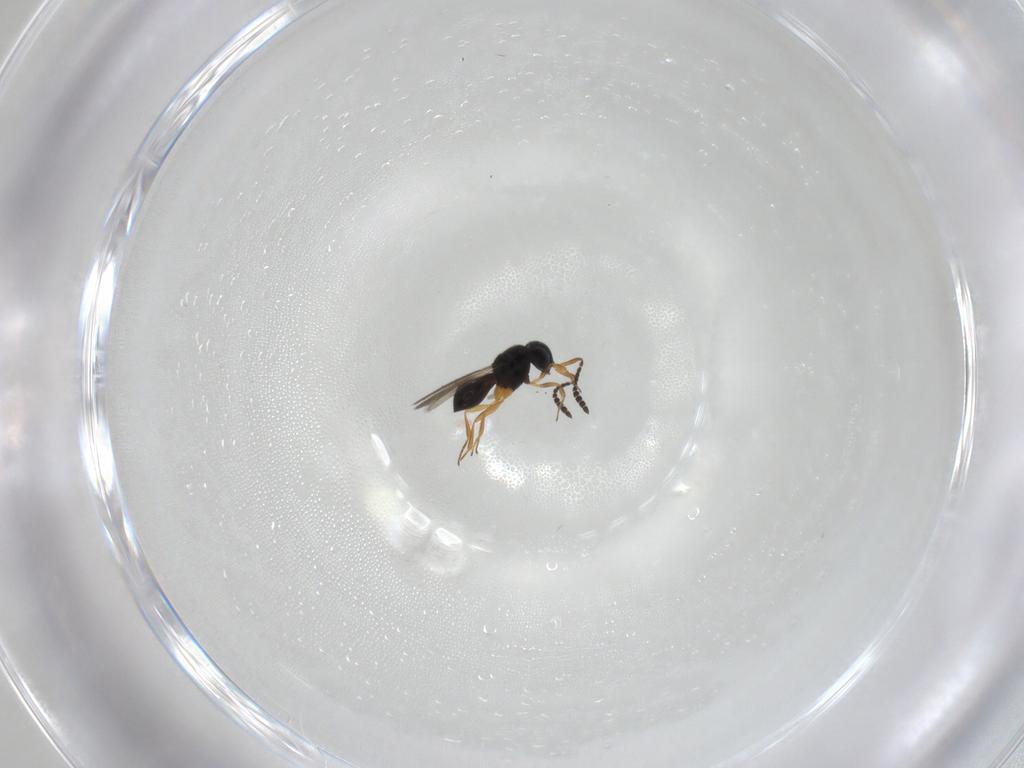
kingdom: Animalia
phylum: Arthropoda
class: Insecta
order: Hymenoptera
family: Scelionidae
